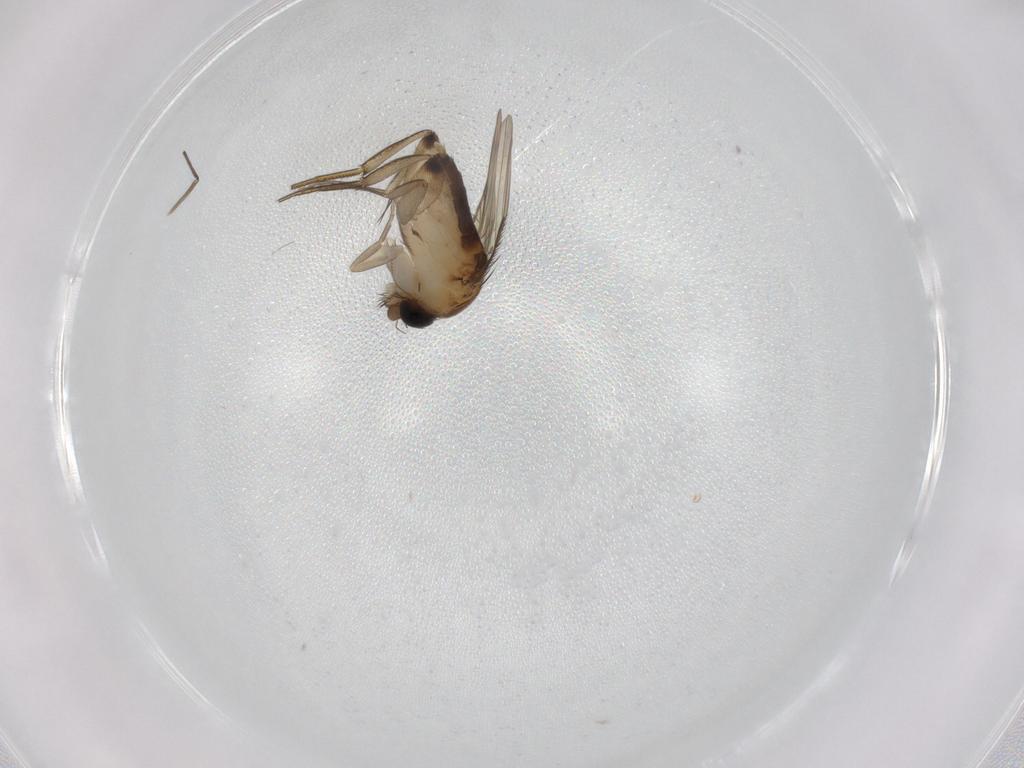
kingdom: Animalia
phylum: Arthropoda
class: Insecta
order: Diptera
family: Phoridae
